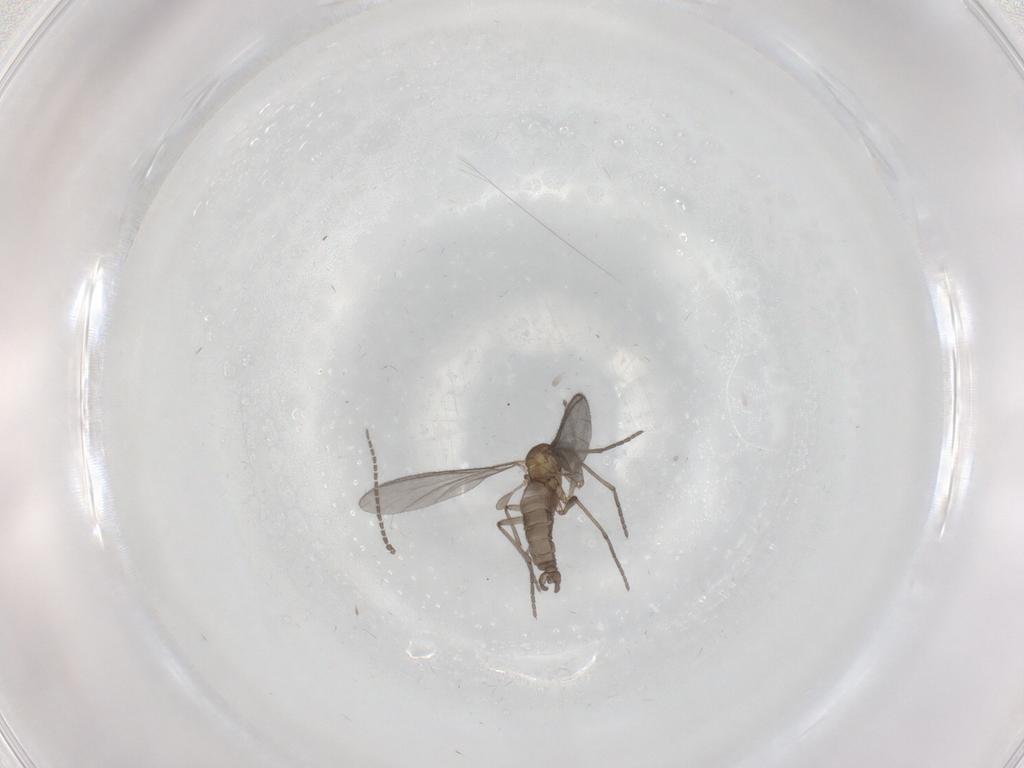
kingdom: Animalia
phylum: Arthropoda
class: Insecta
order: Diptera
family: Sciaridae
